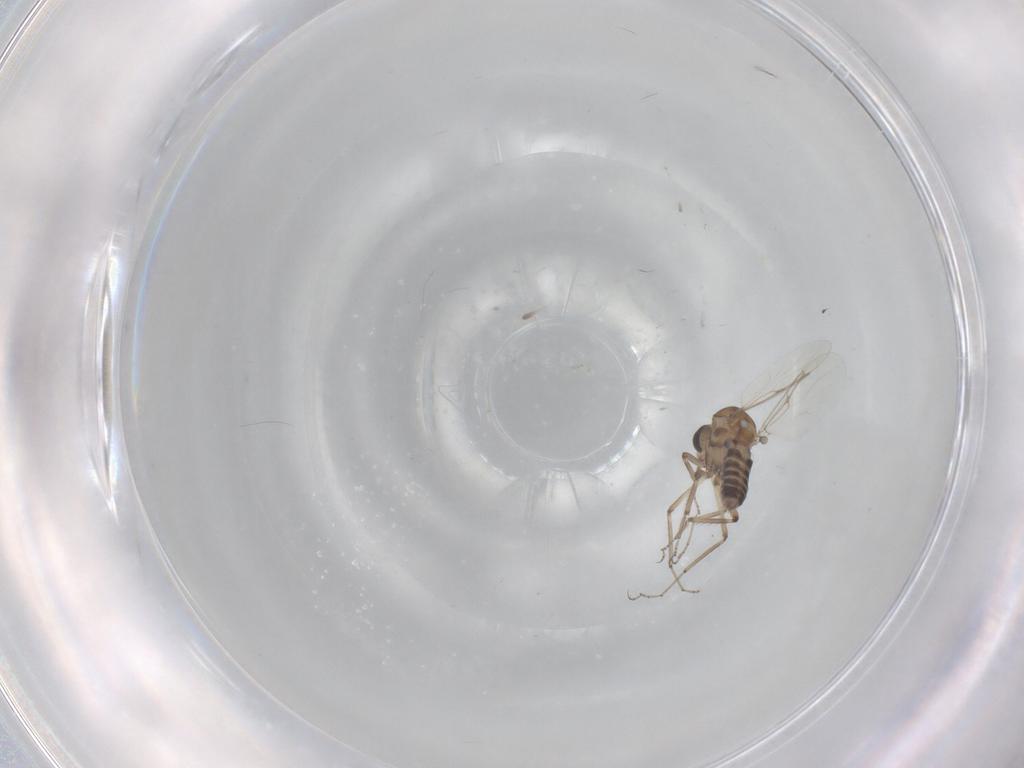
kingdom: Animalia
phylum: Arthropoda
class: Insecta
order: Diptera
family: Ceratopogonidae
